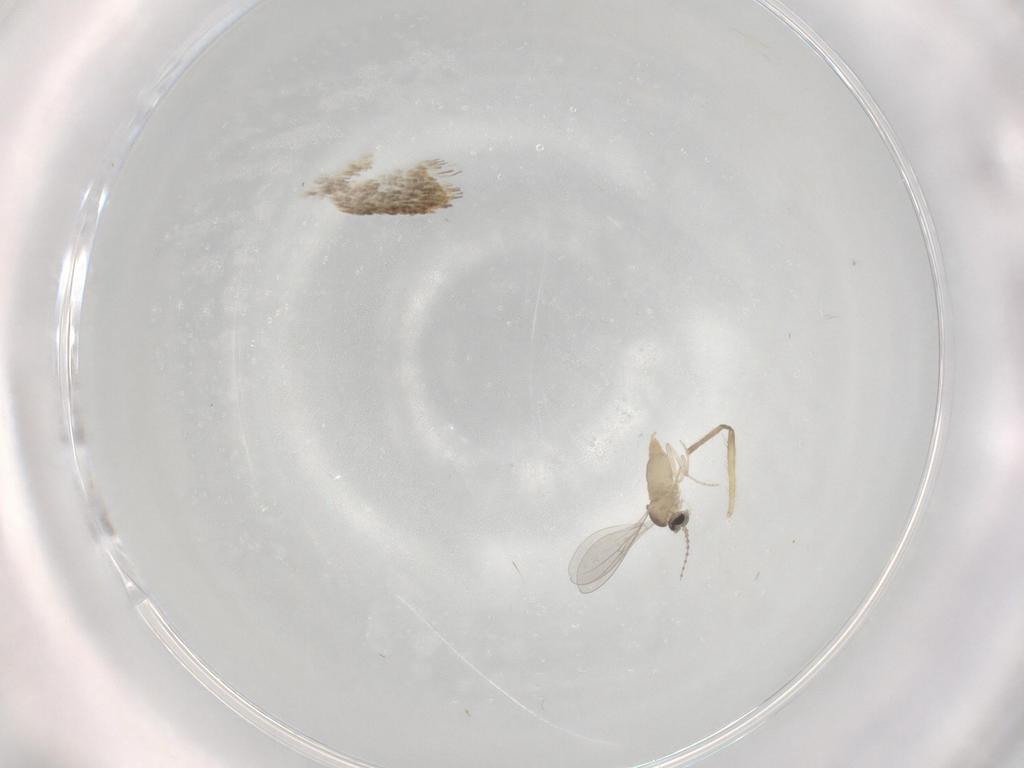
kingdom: Animalia
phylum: Arthropoda
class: Insecta
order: Diptera
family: Cecidomyiidae
